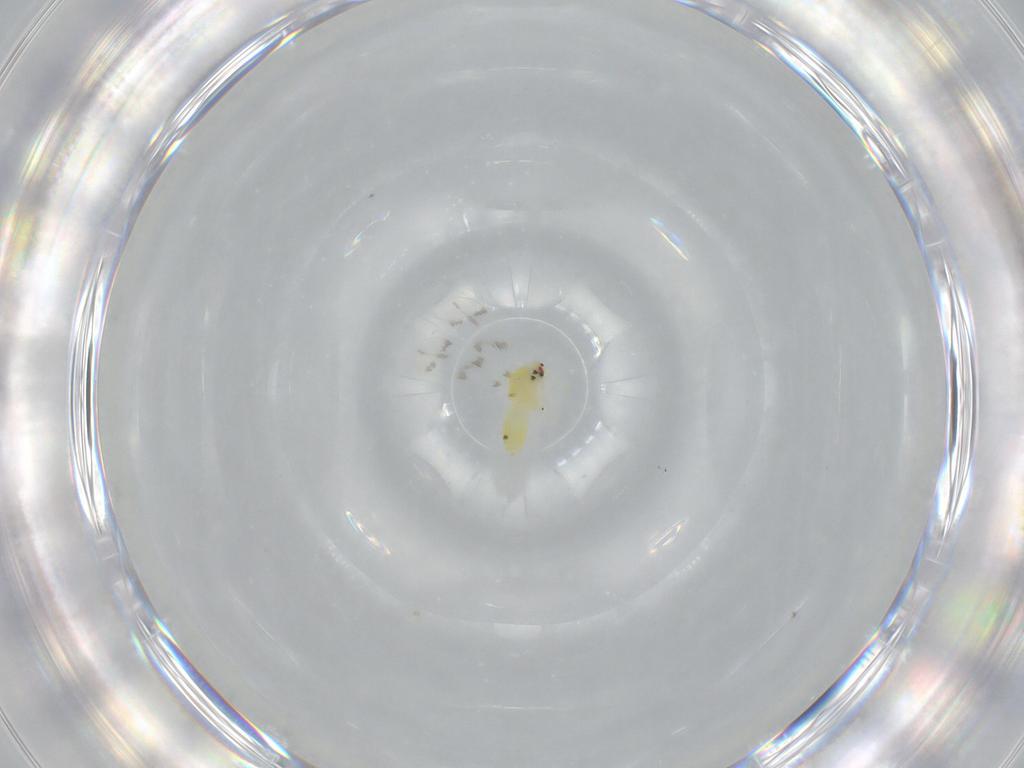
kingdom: Animalia
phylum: Arthropoda
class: Insecta
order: Hemiptera
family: Aleyrodidae
